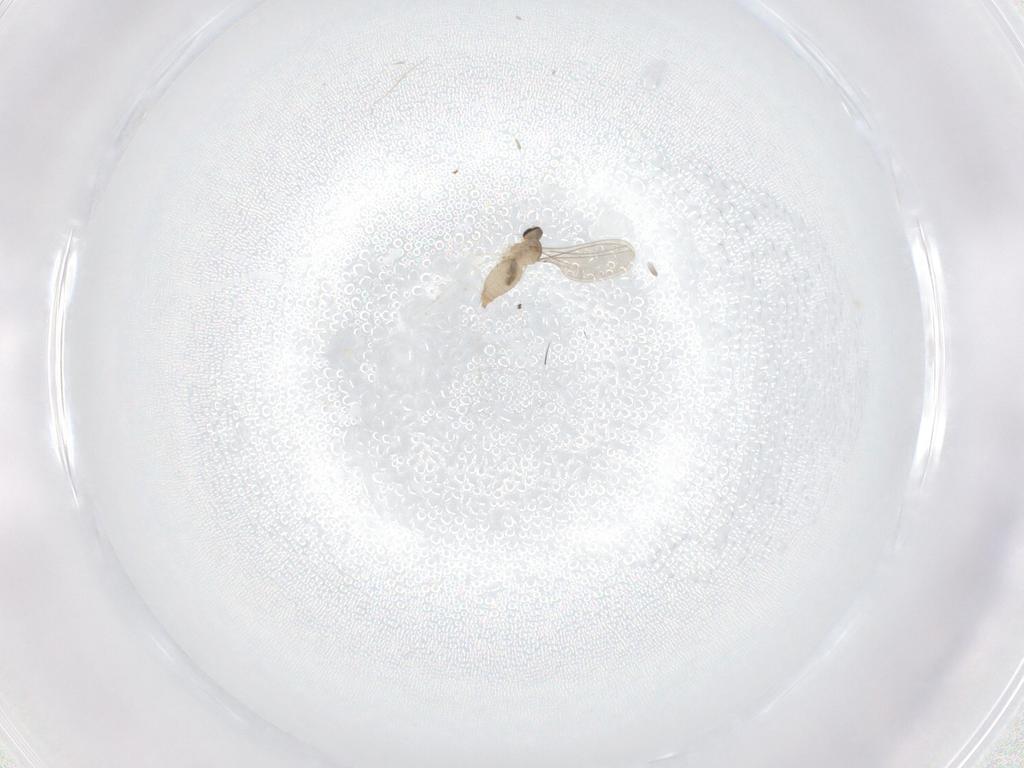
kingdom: Animalia
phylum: Arthropoda
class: Insecta
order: Diptera
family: Cecidomyiidae
